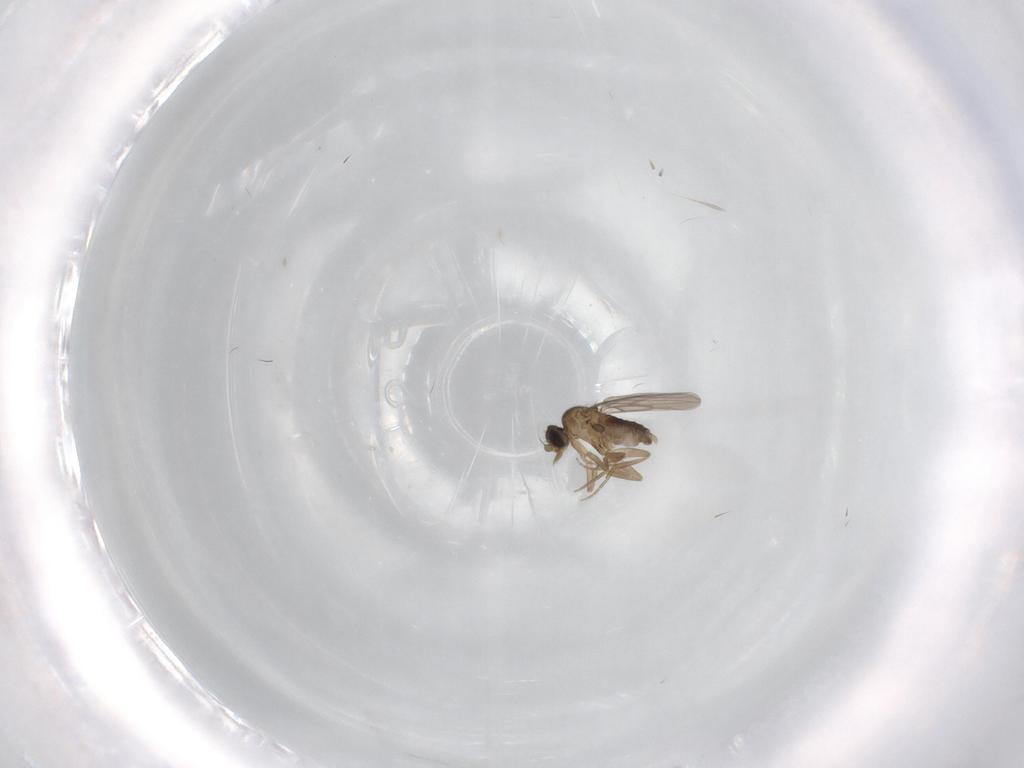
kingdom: Animalia
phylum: Arthropoda
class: Insecta
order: Diptera
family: Phoridae
